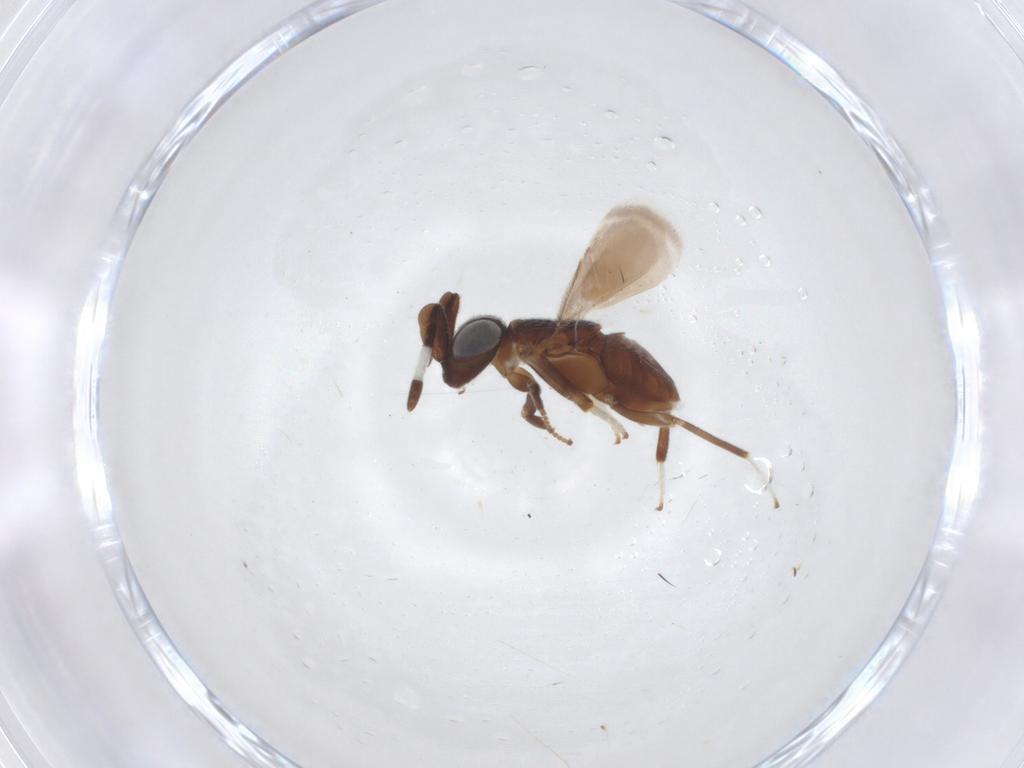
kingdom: Animalia
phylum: Arthropoda
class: Insecta
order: Hymenoptera
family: Encyrtidae
